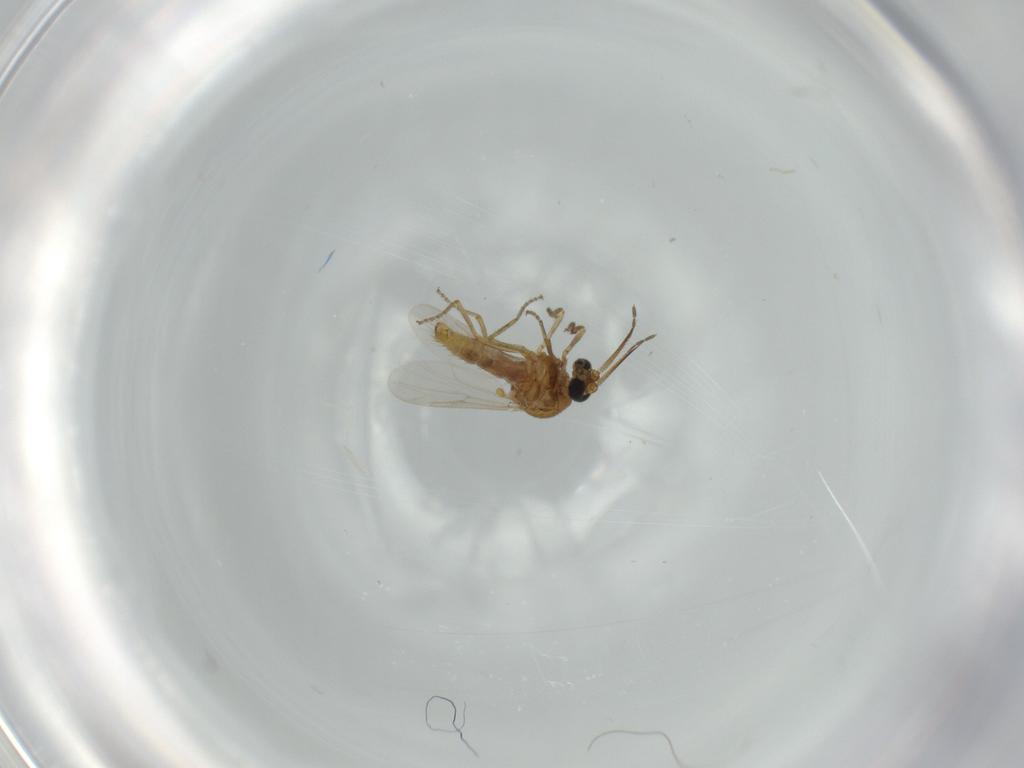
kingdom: Animalia
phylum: Arthropoda
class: Insecta
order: Diptera
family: Ceratopogonidae
